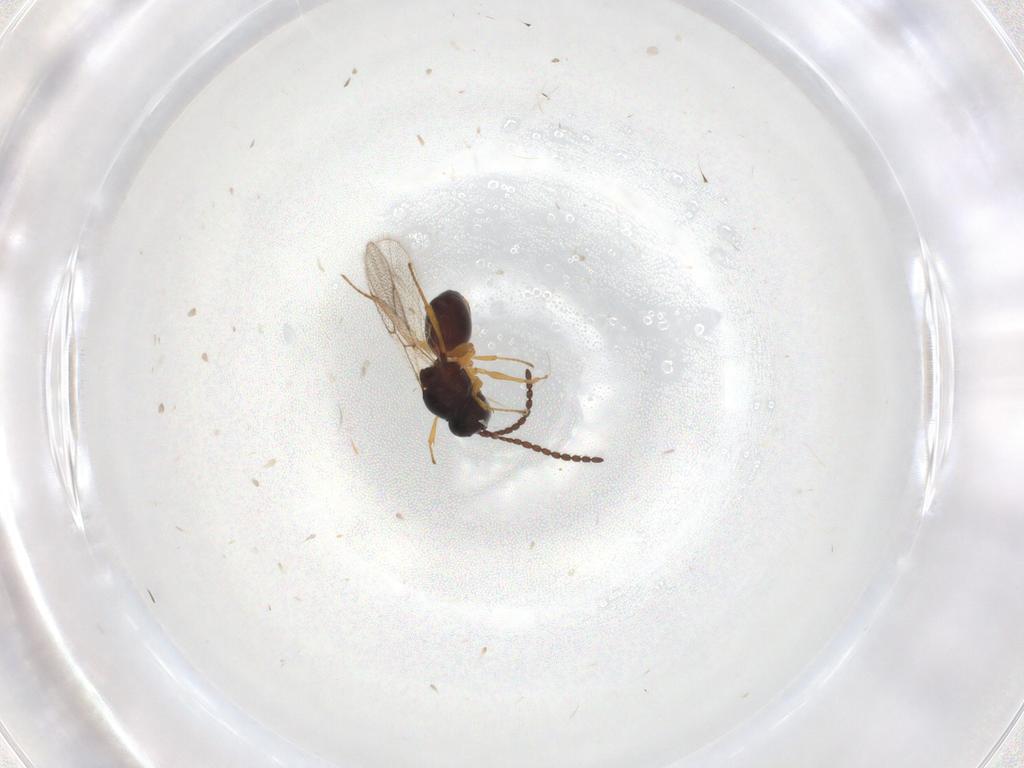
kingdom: Animalia
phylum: Arthropoda
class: Insecta
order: Hymenoptera
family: Figitidae
